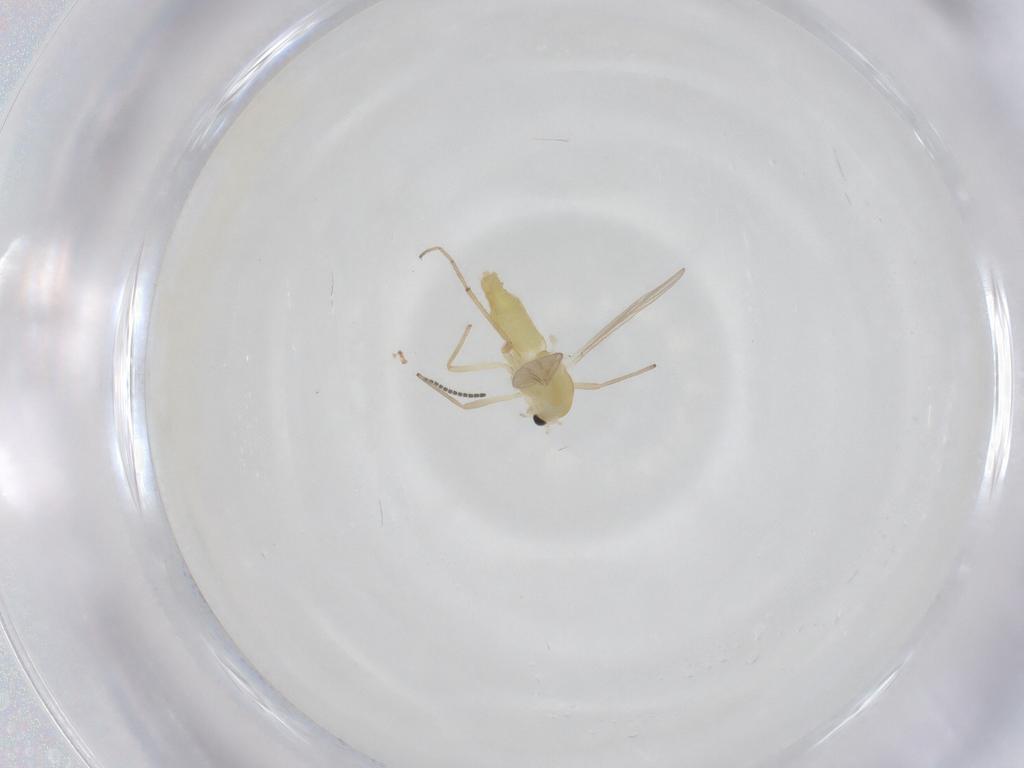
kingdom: Animalia
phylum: Arthropoda
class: Insecta
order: Diptera
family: Chironomidae
